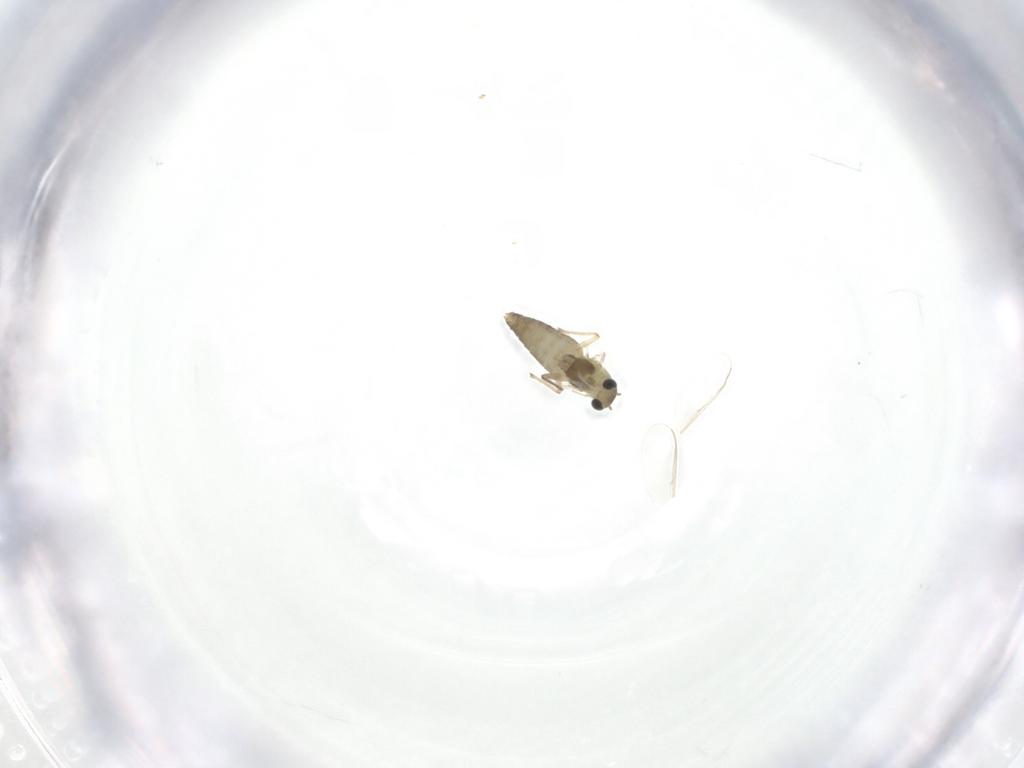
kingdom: Animalia
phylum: Arthropoda
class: Insecta
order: Diptera
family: Chironomidae
